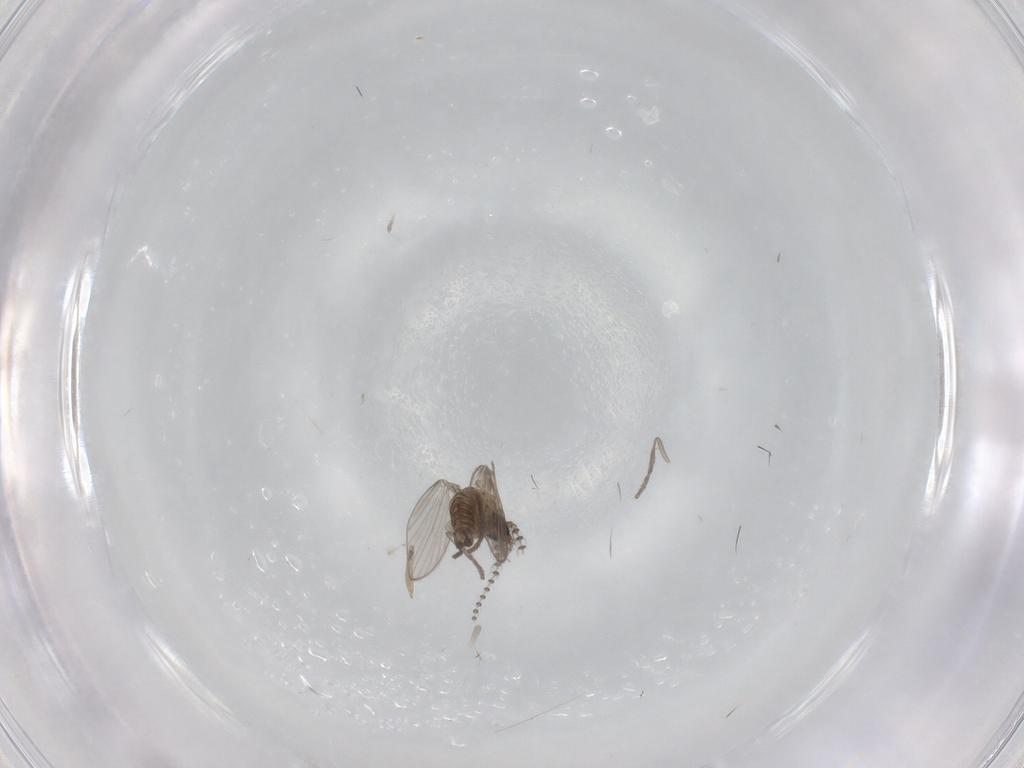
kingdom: Animalia
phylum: Arthropoda
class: Insecta
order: Diptera
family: Psychodidae
